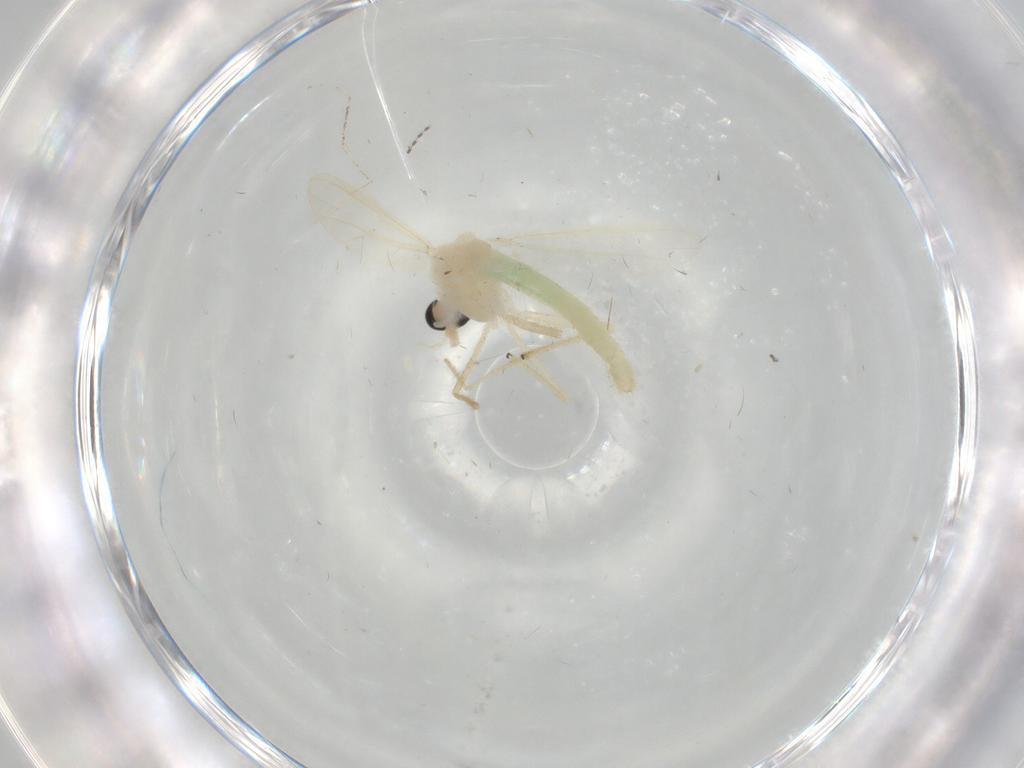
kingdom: Animalia
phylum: Arthropoda
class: Insecta
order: Diptera
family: Chironomidae
